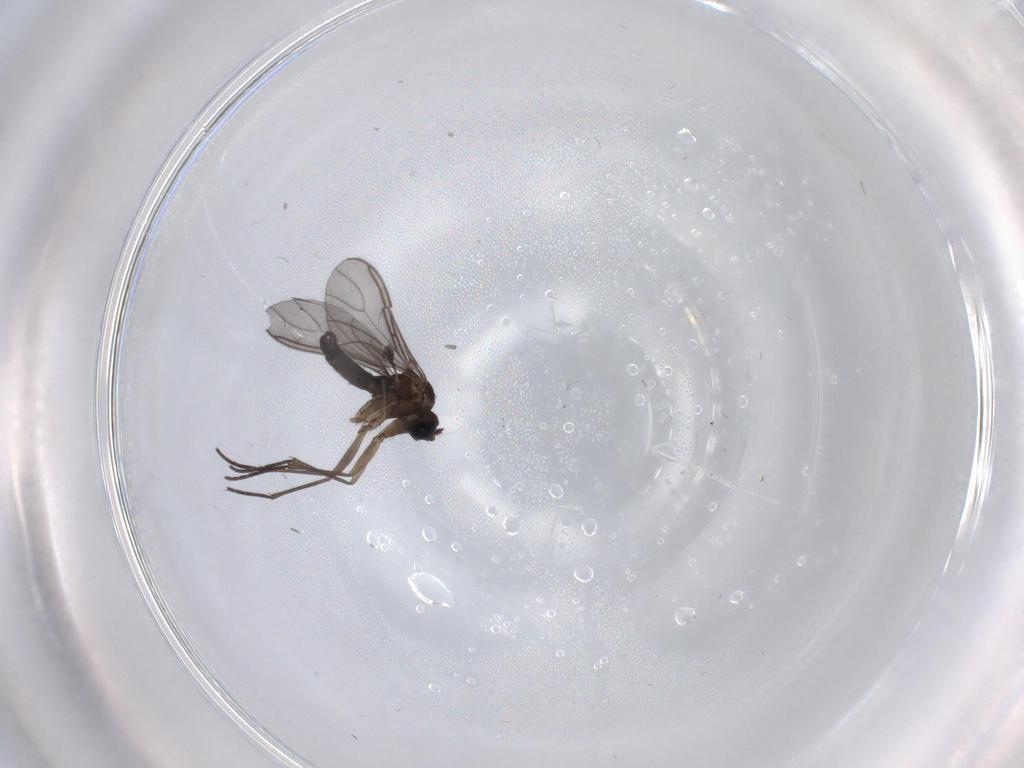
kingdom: Animalia
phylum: Arthropoda
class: Insecta
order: Diptera
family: Sciaridae
